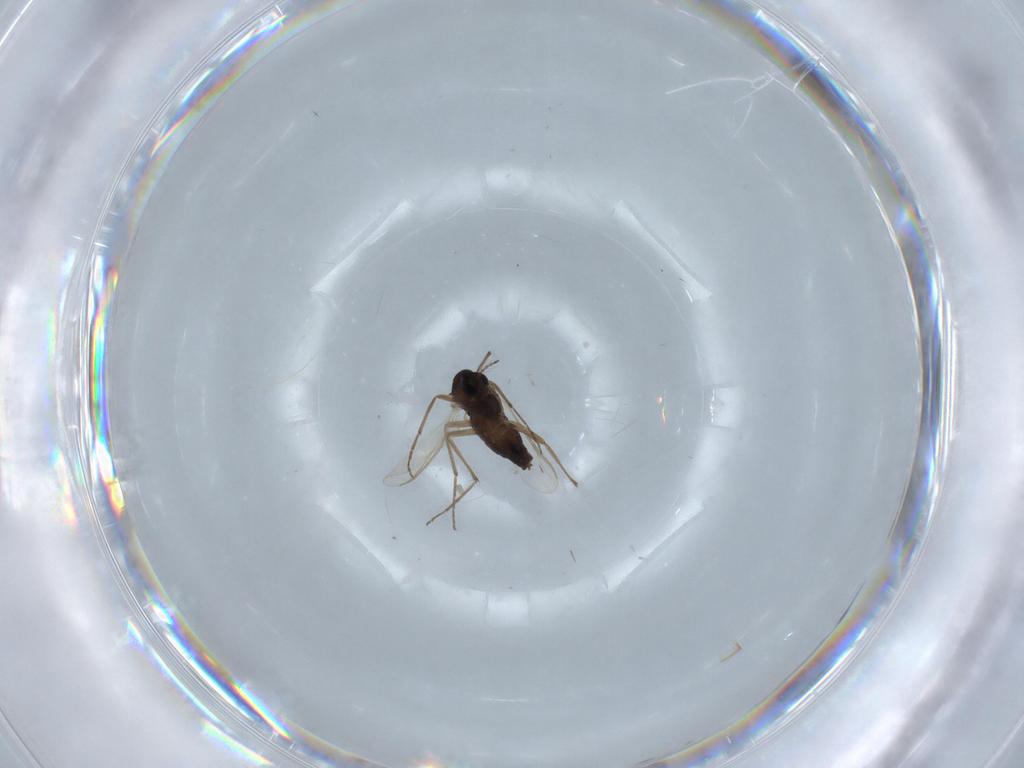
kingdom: Animalia
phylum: Arthropoda
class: Insecta
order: Diptera
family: Chironomidae
